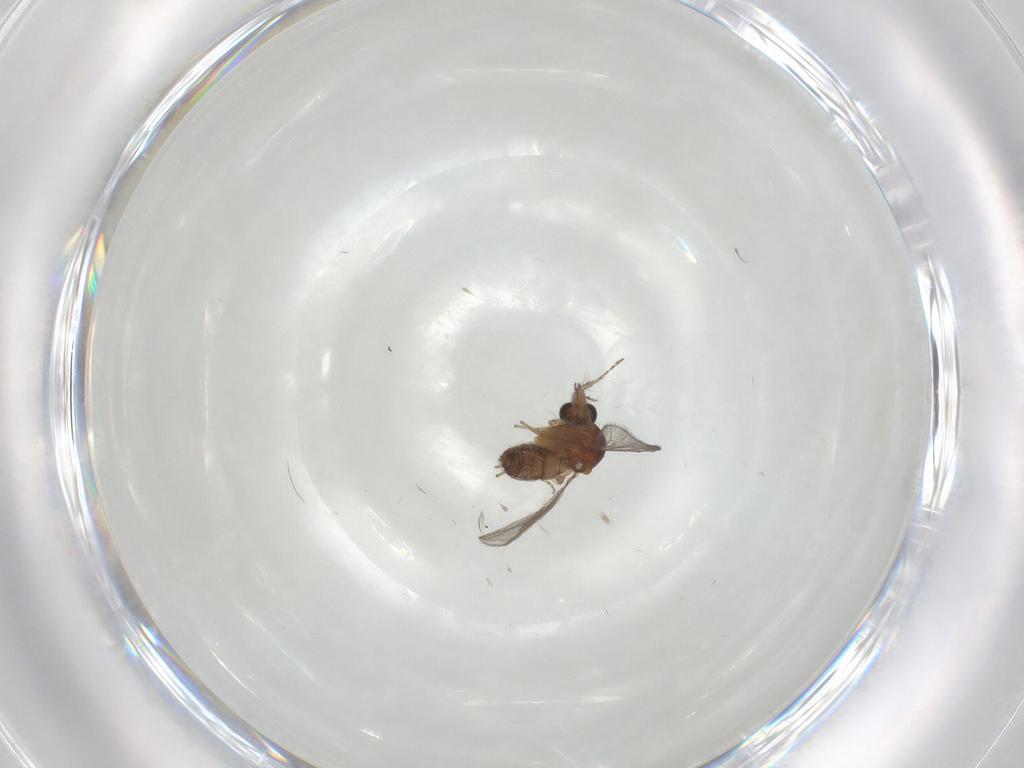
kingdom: Animalia
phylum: Arthropoda
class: Insecta
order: Diptera
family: Ceratopogonidae
